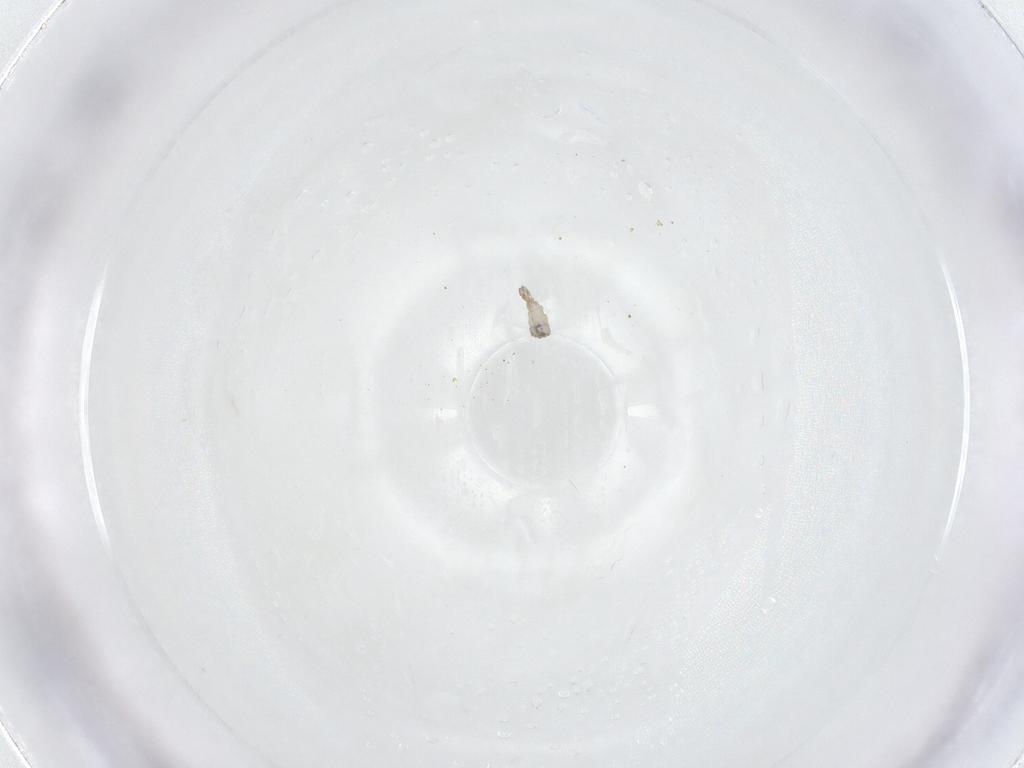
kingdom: Animalia
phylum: Arthropoda
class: Insecta
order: Diptera
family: Cecidomyiidae
